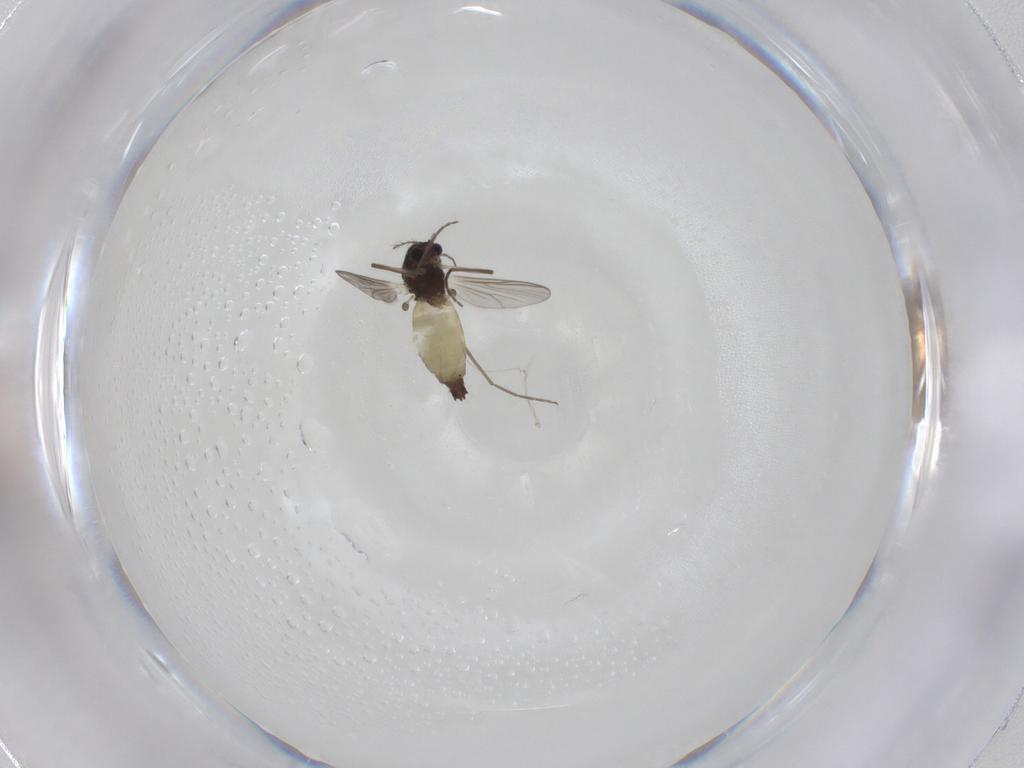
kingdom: Animalia
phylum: Arthropoda
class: Insecta
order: Diptera
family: Chironomidae
